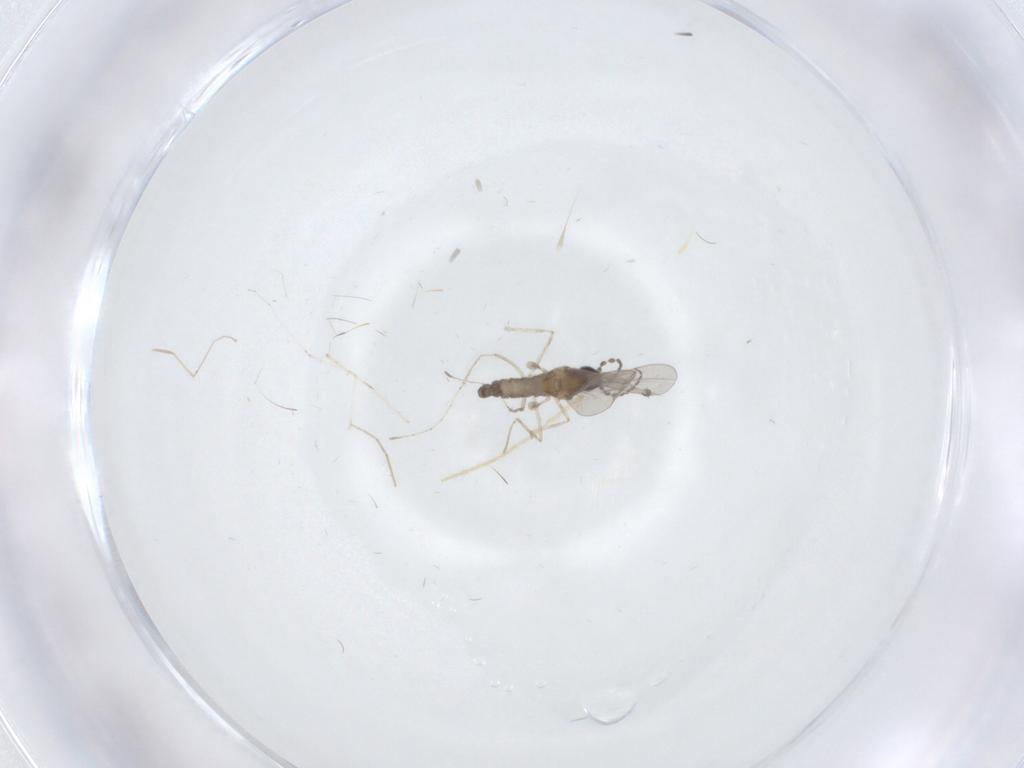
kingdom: Animalia
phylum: Arthropoda
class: Insecta
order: Diptera
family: Cecidomyiidae
